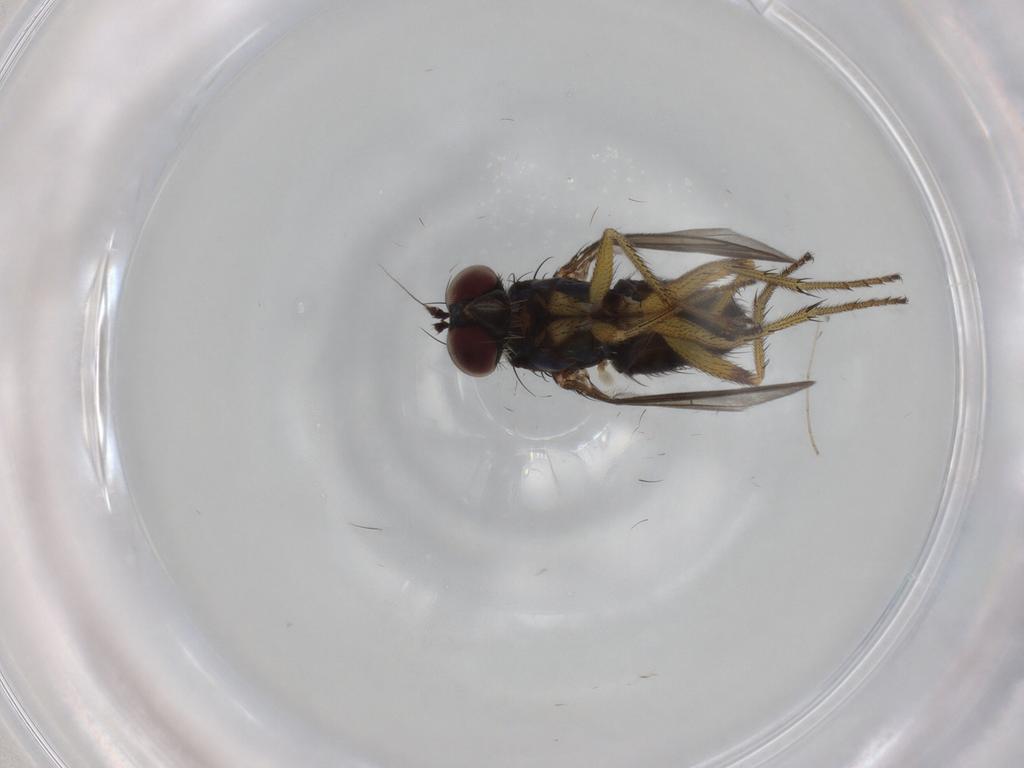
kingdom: Animalia
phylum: Arthropoda
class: Insecta
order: Diptera
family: Dolichopodidae
